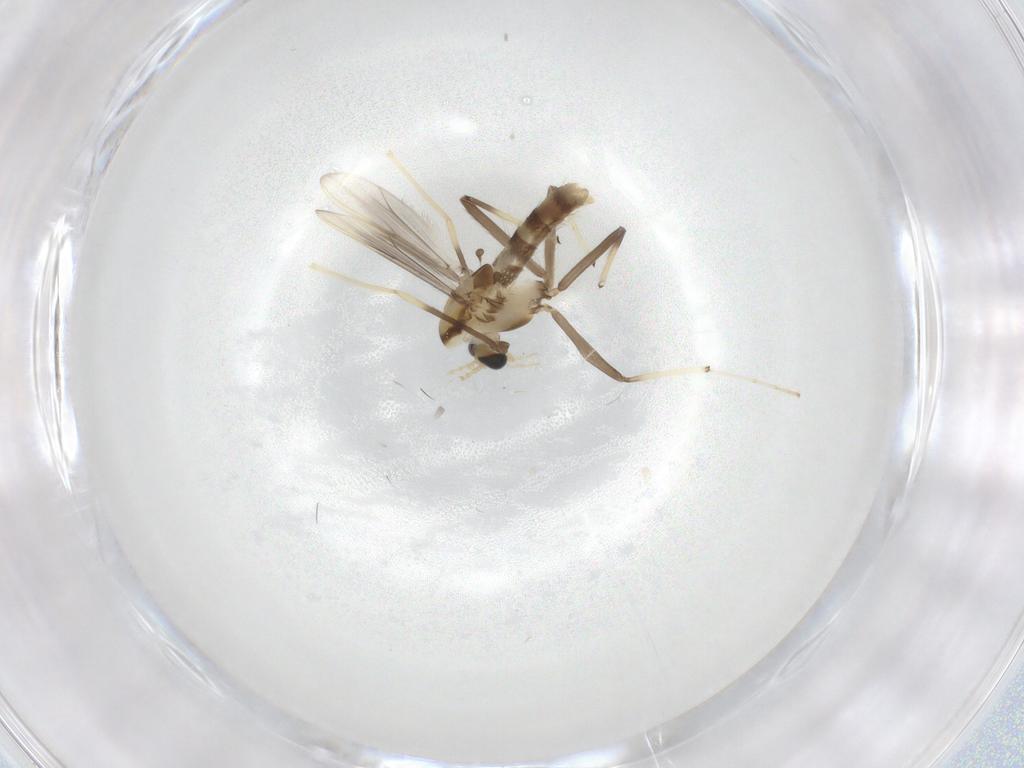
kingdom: Animalia
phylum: Arthropoda
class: Insecta
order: Diptera
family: Chironomidae
